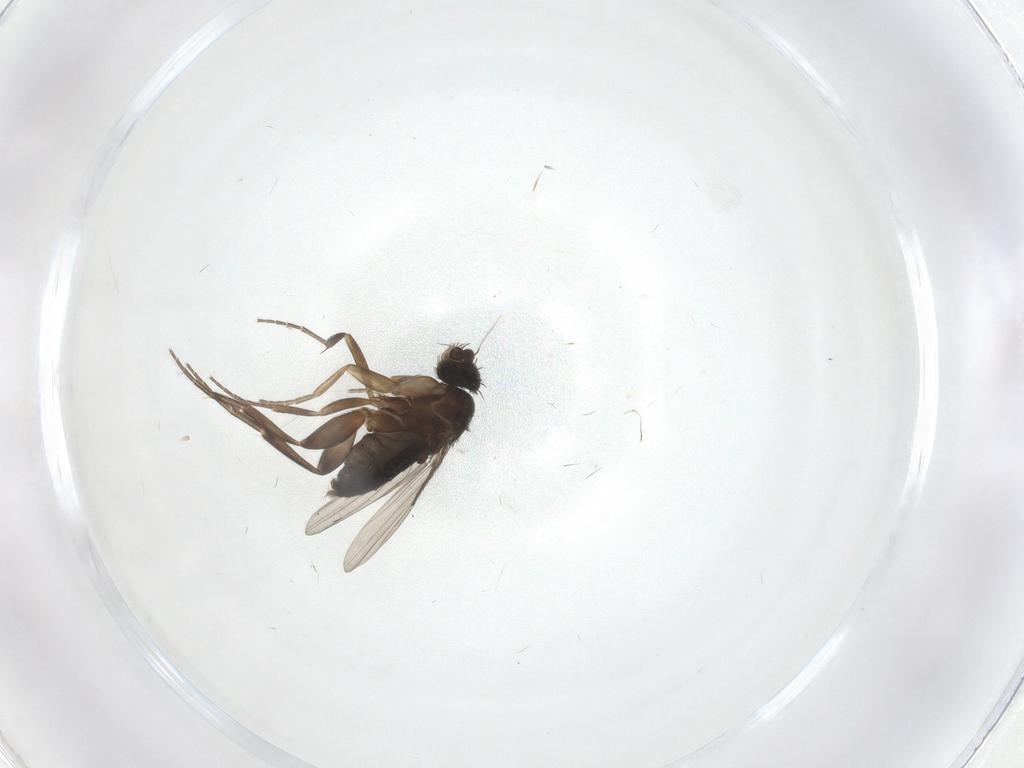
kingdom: Animalia
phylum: Arthropoda
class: Insecta
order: Diptera
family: Phoridae
